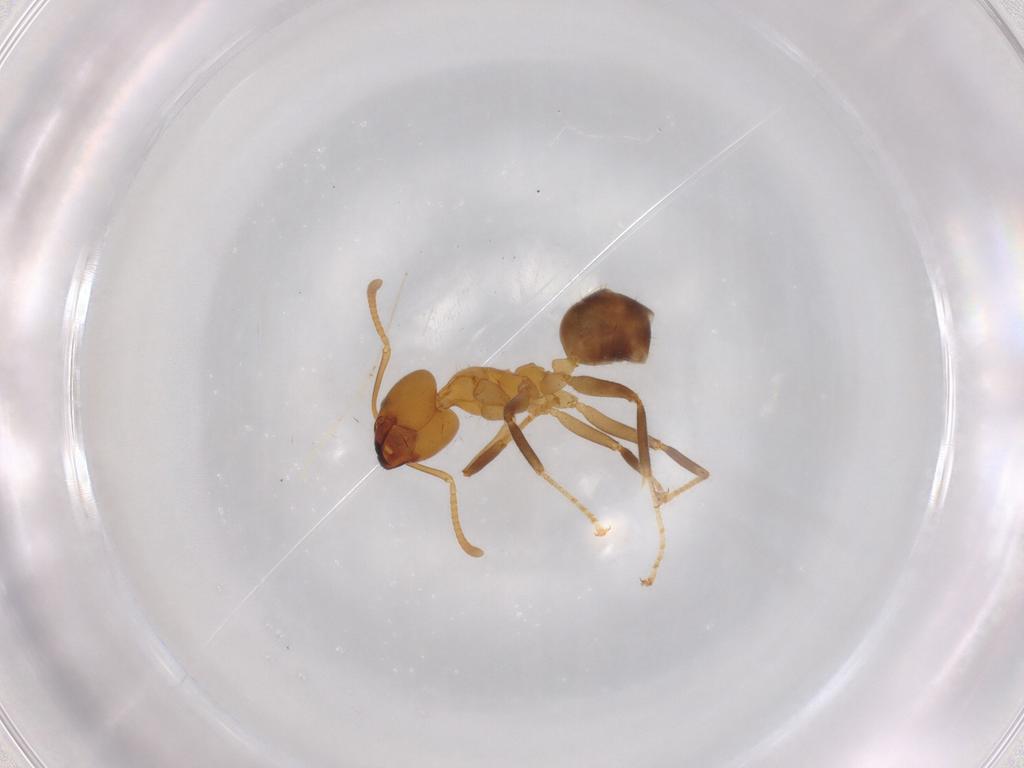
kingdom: Animalia
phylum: Arthropoda
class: Insecta
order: Hymenoptera
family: Formicidae
